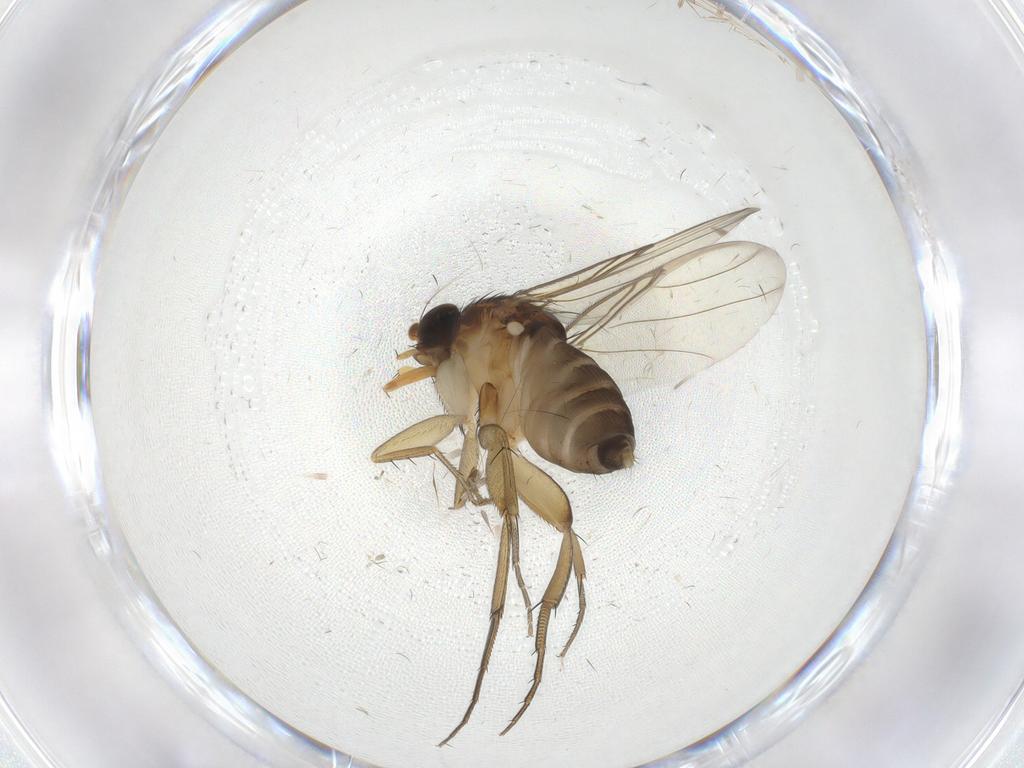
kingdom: Animalia
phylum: Arthropoda
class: Insecta
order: Diptera
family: Phoridae
